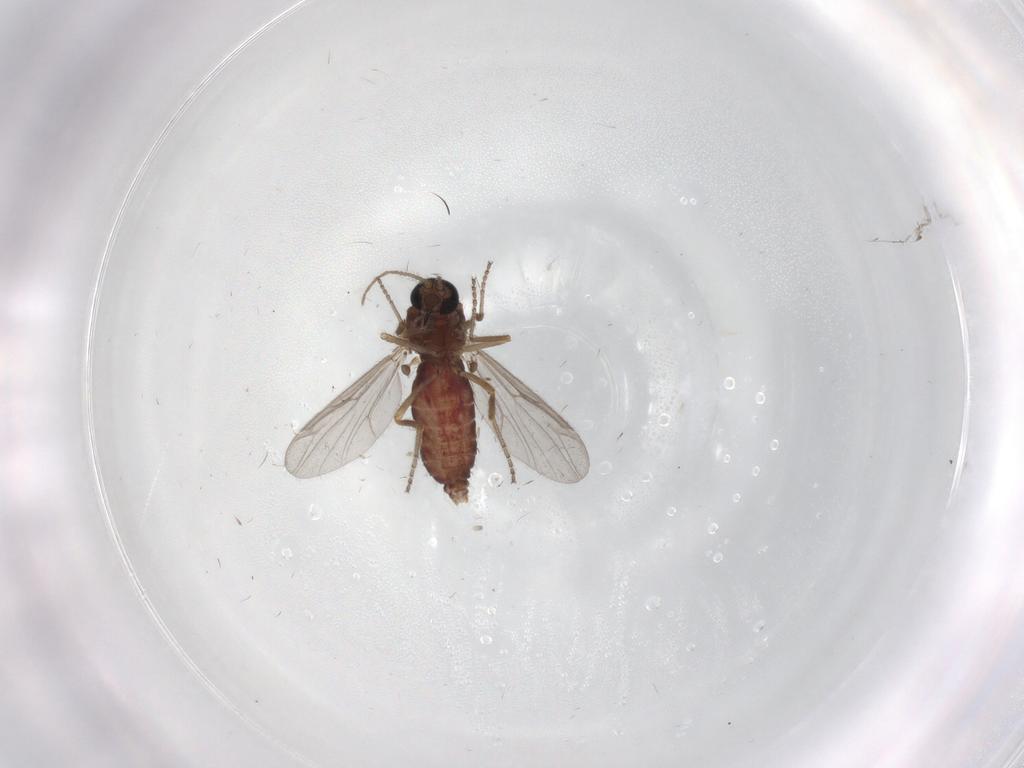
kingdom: Animalia
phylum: Arthropoda
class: Insecta
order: Diptera
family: Ceratopogonidae
